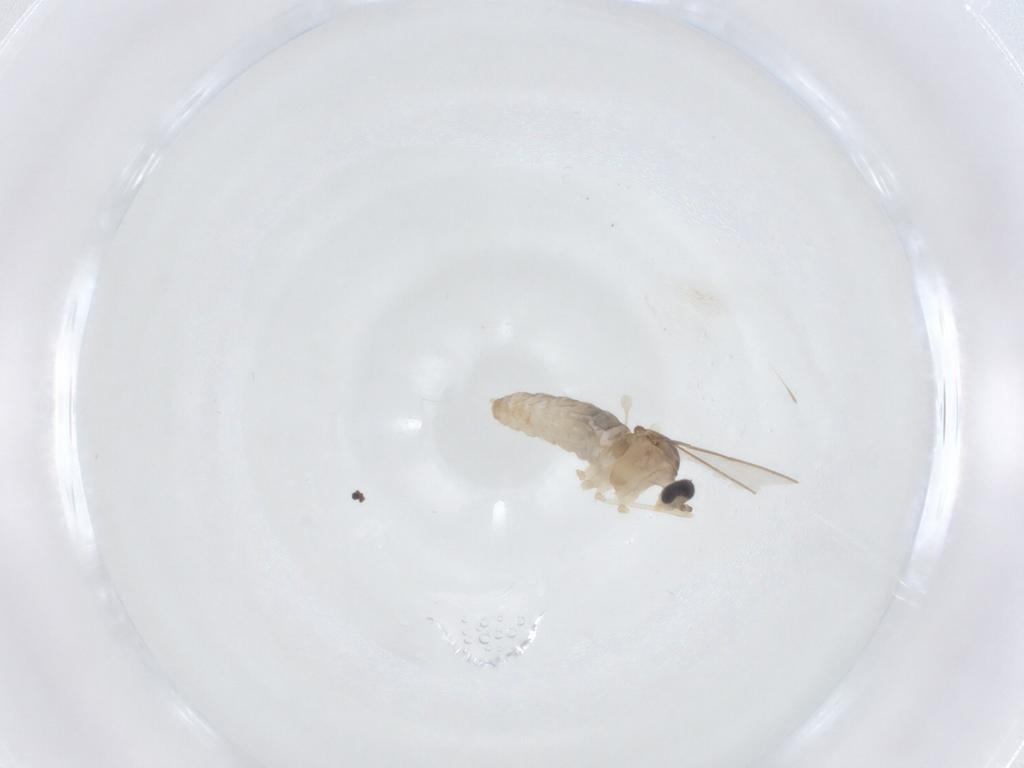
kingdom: Animalia
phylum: Arthropoda
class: Insecta
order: Diptera
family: Cecidomyiidae
